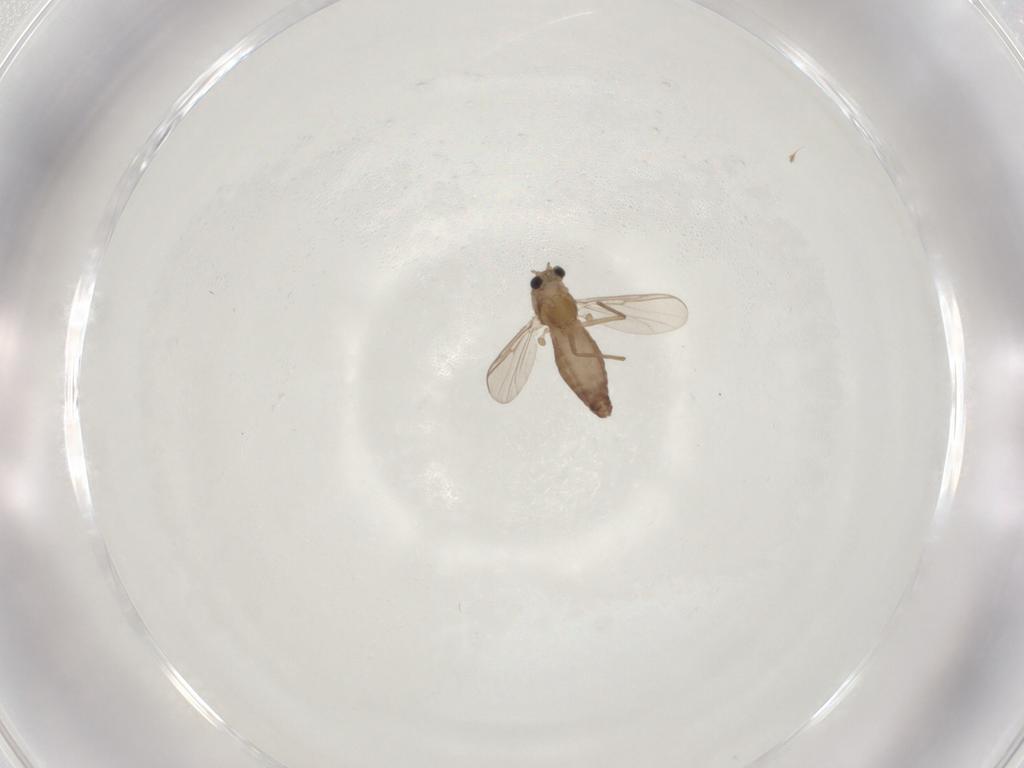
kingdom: Animalia
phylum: Arthropoda
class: Insecta
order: Diptera
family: Chironomidae
